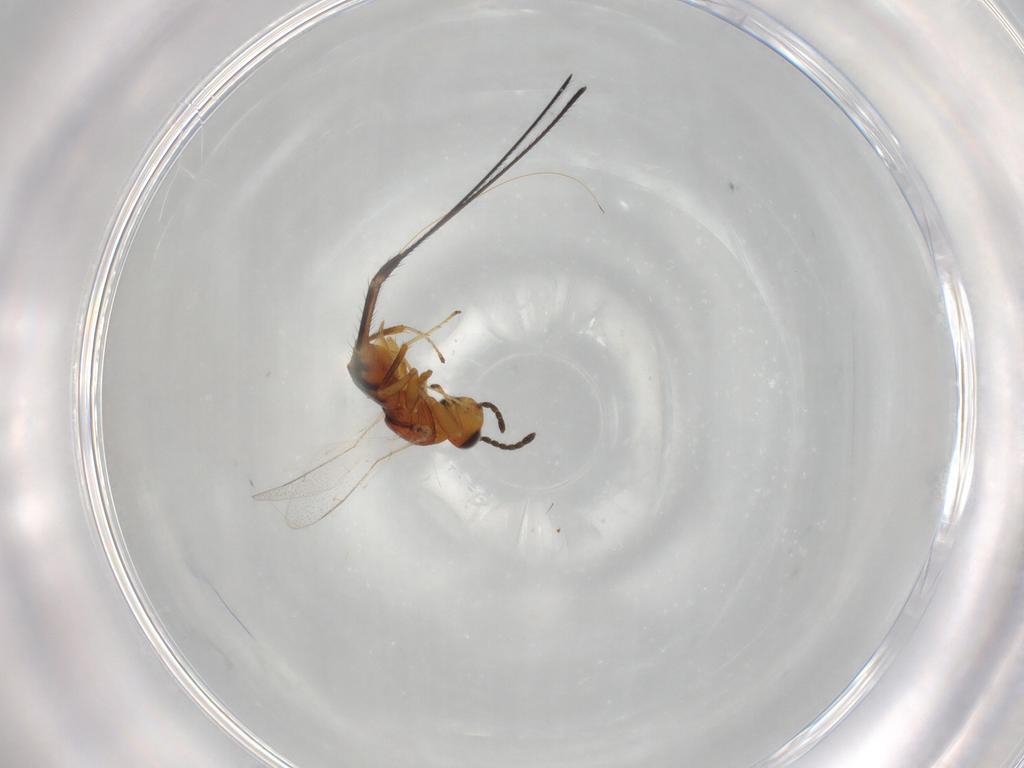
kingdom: Animalia
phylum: Arthropoda
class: Insecta
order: Hymenoptera
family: Pteromalidae
